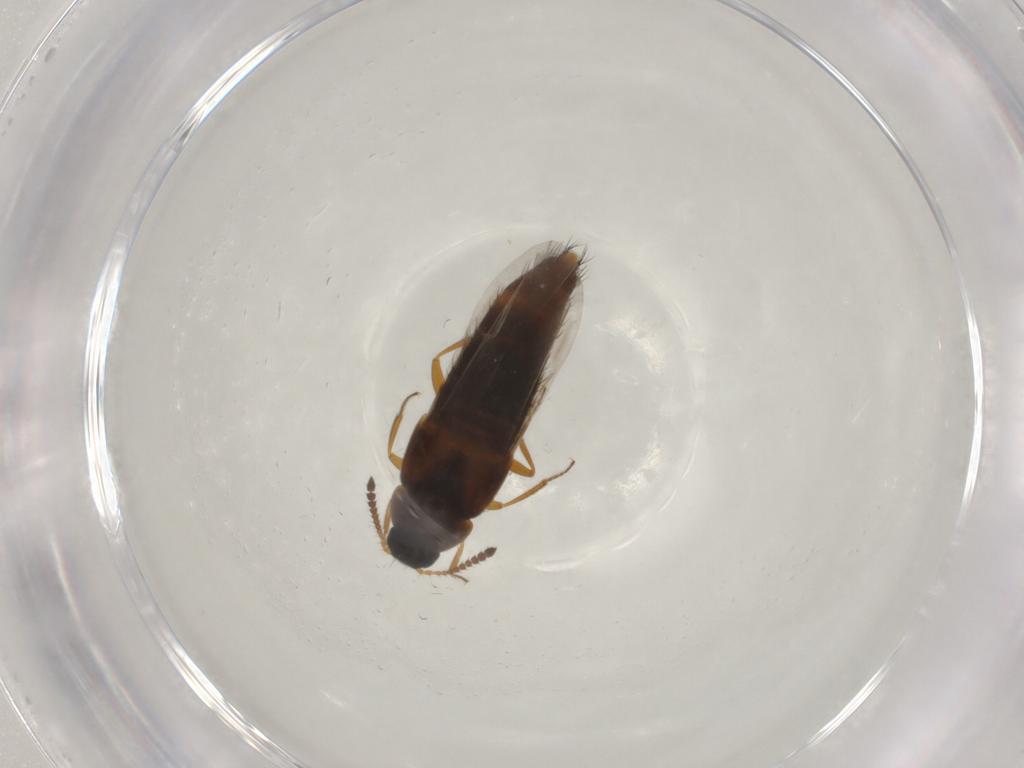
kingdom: Animalia
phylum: Arthropoda
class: Insecta
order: Coleoptera
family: Staphylinidae
